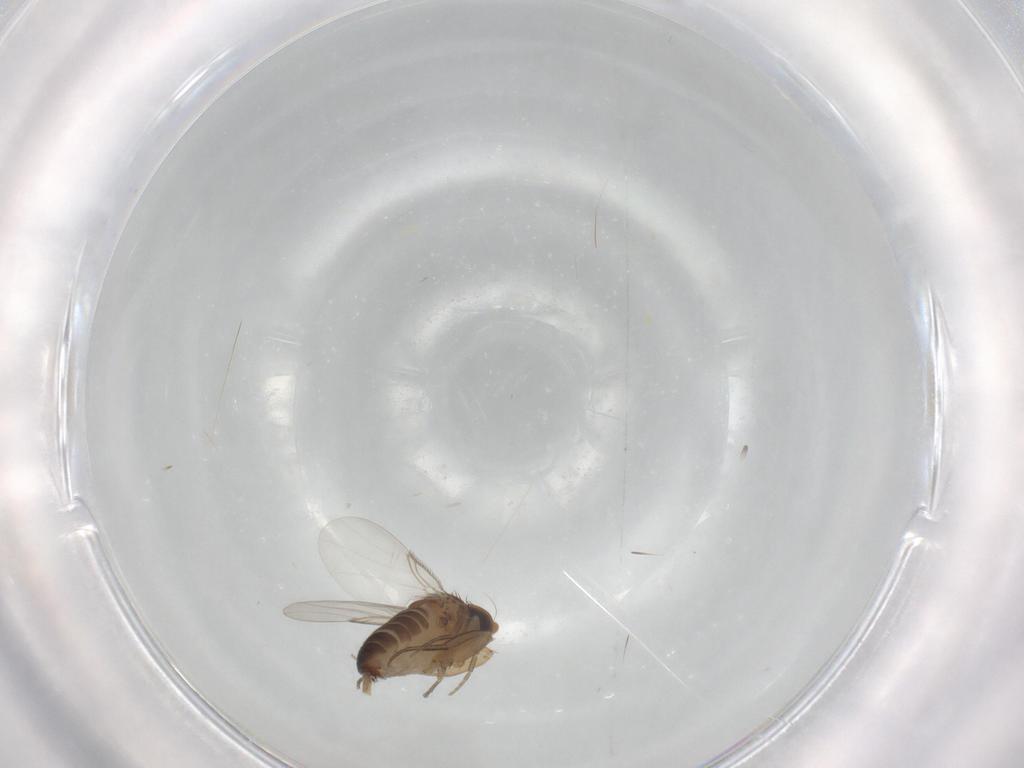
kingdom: Animalia
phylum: Arthropoda
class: Insecta
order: Diptera
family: Phoridae
